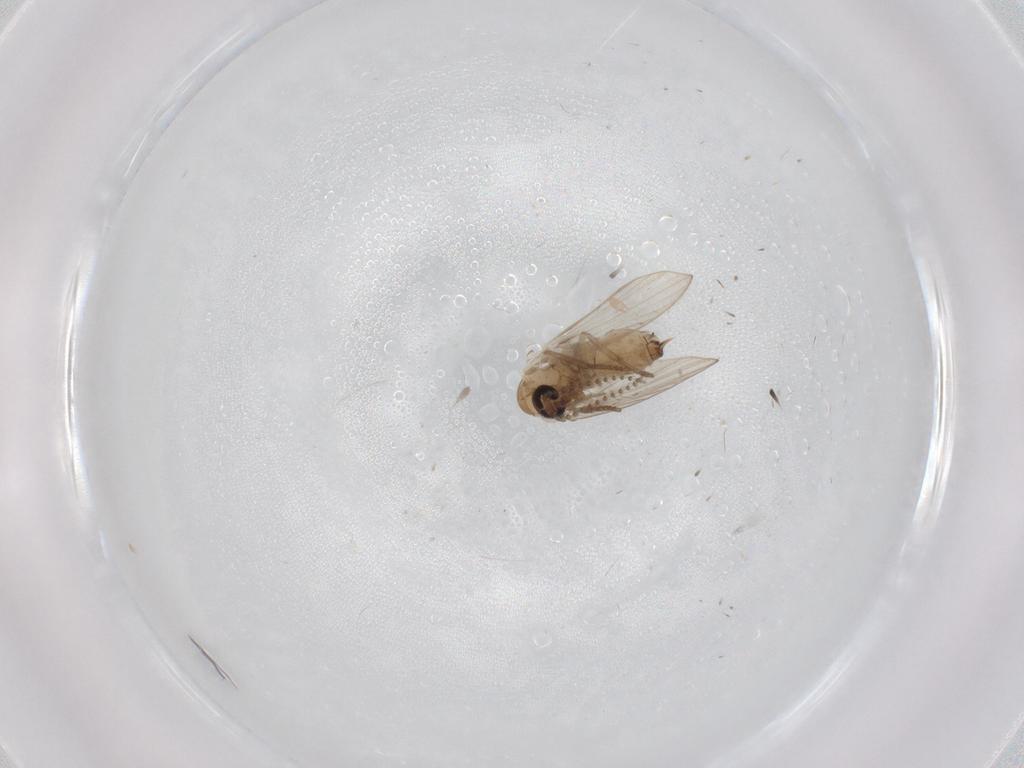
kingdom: Animalia
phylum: Arthropoda
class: Insecta
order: Diptera
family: Psychodidae
